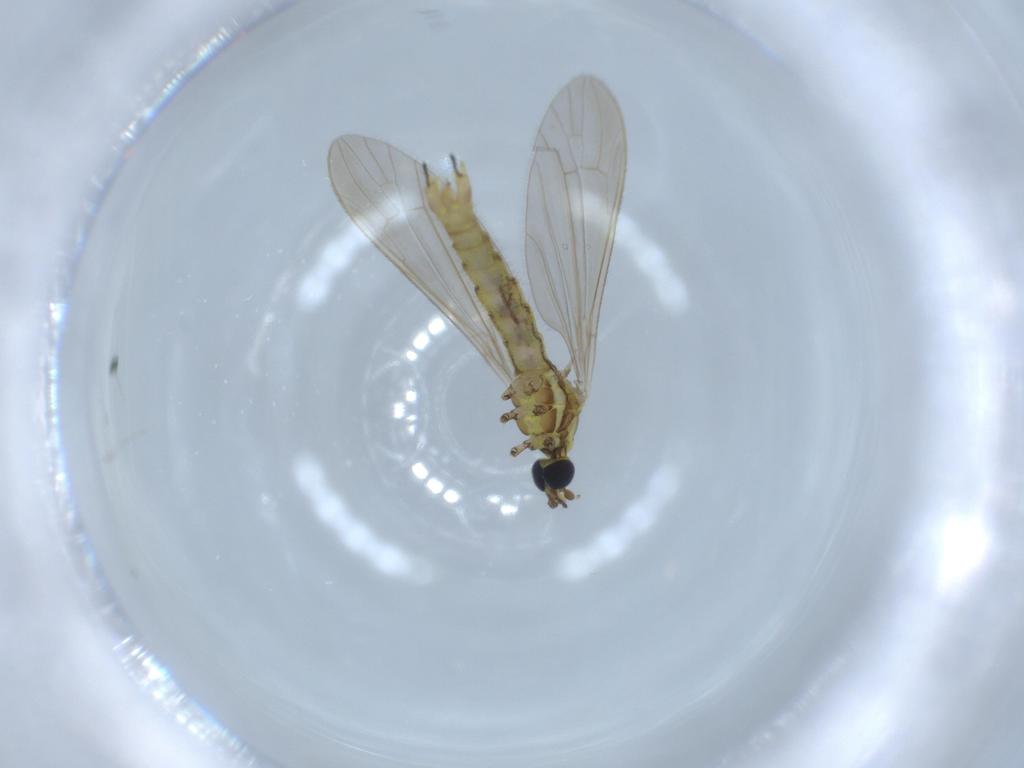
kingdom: Animalia
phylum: Arthropoda
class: Insecta
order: Diptera
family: Limoniidae
